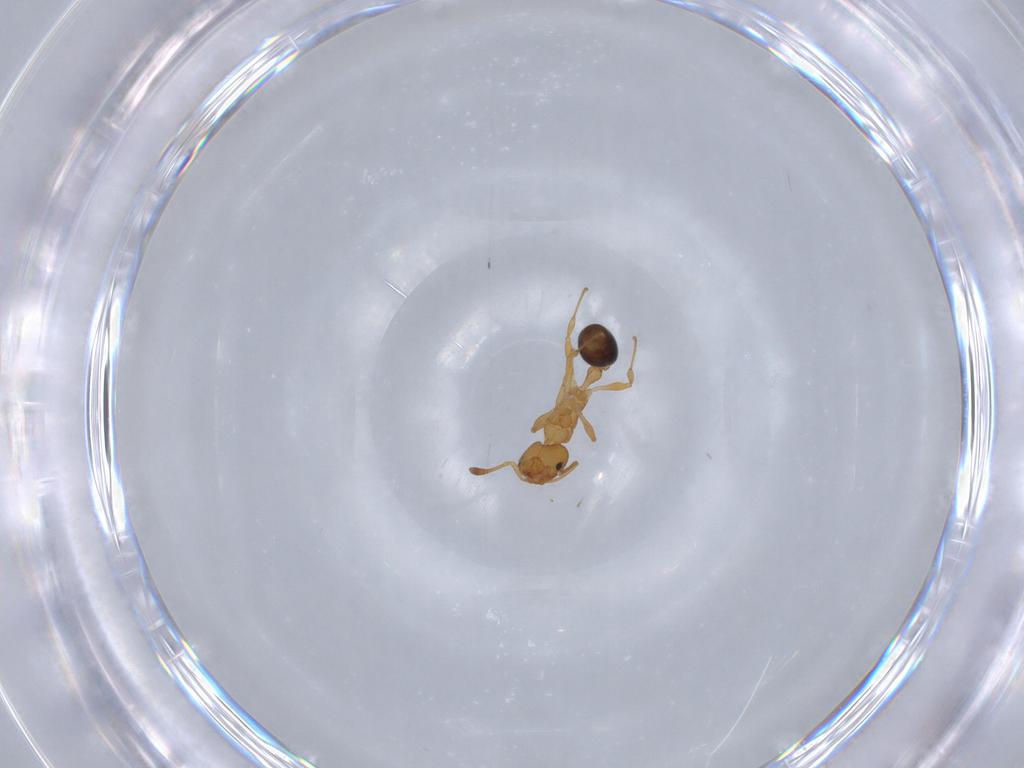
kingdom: Animalia
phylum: Arthropoda
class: Insecta
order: Hymenoptera
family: Formicidae
